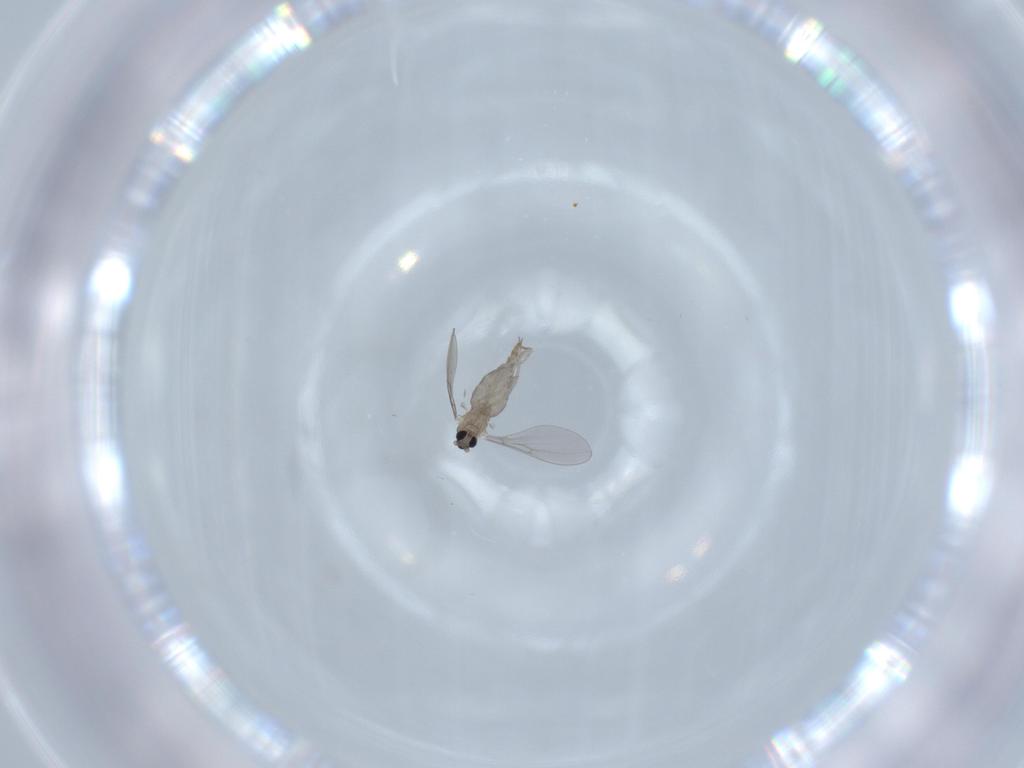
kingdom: Animalia
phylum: Arthropoda
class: Insecta
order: Diptera
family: Cecidomyiidae
